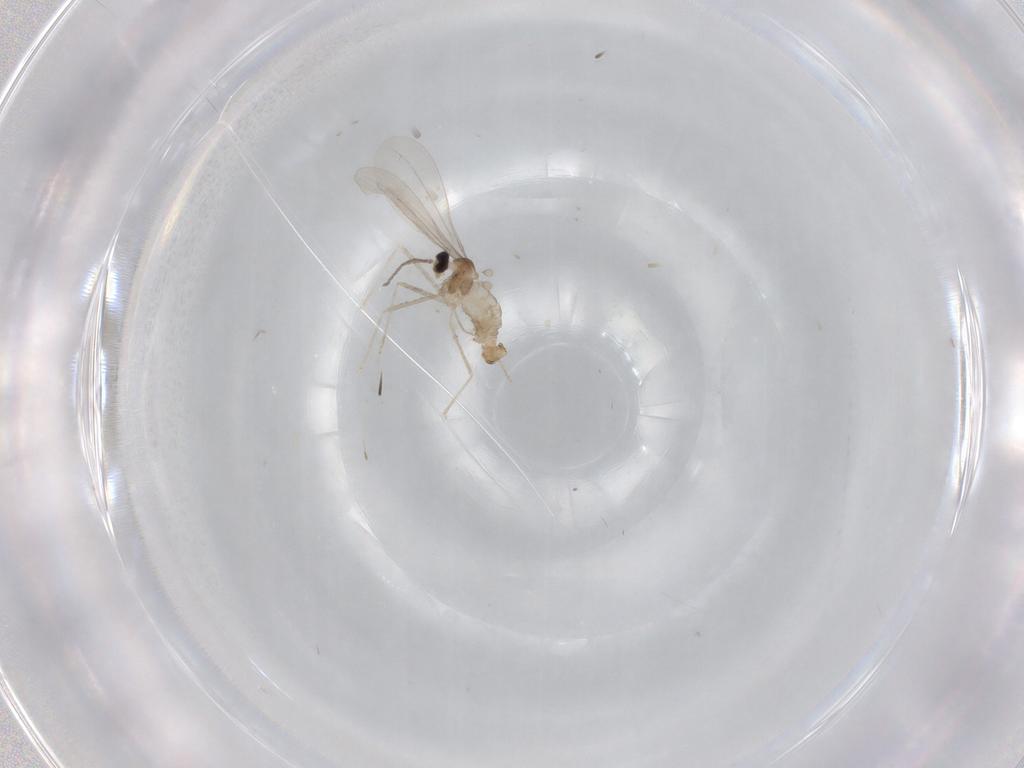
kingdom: Animalia
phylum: Arthropoda
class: Insecta
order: Diptera
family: Cecidomyiidae
